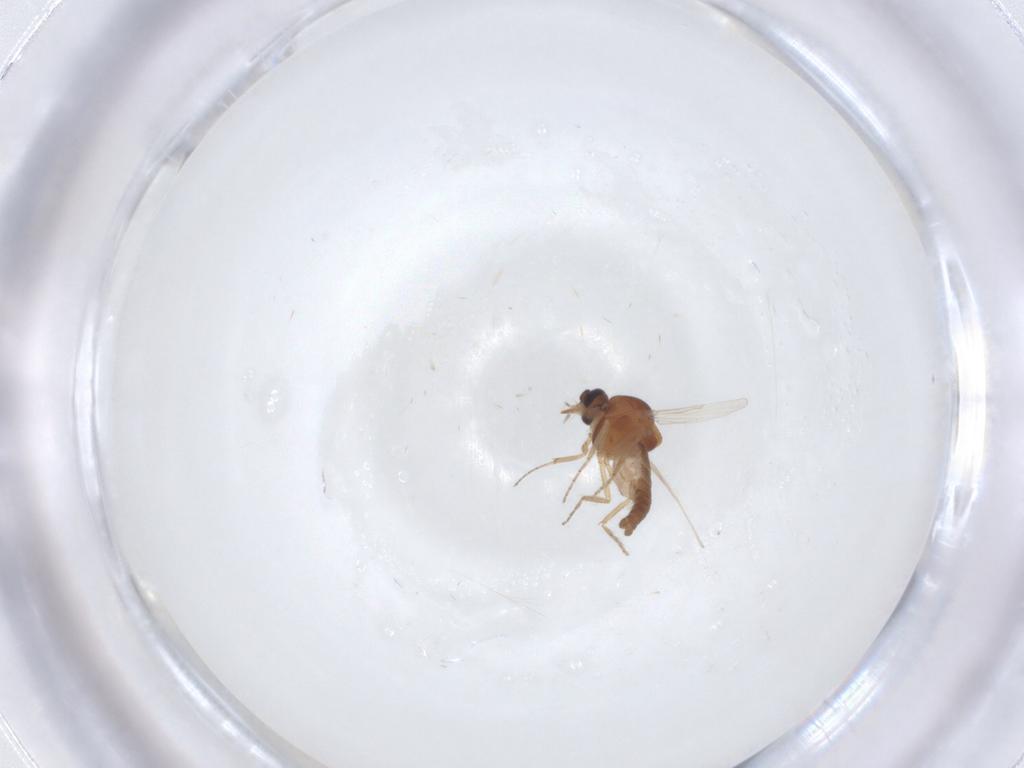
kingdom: Animalia
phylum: Arthropoda
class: Insecta
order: Diptera
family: Ceratopogonidae
